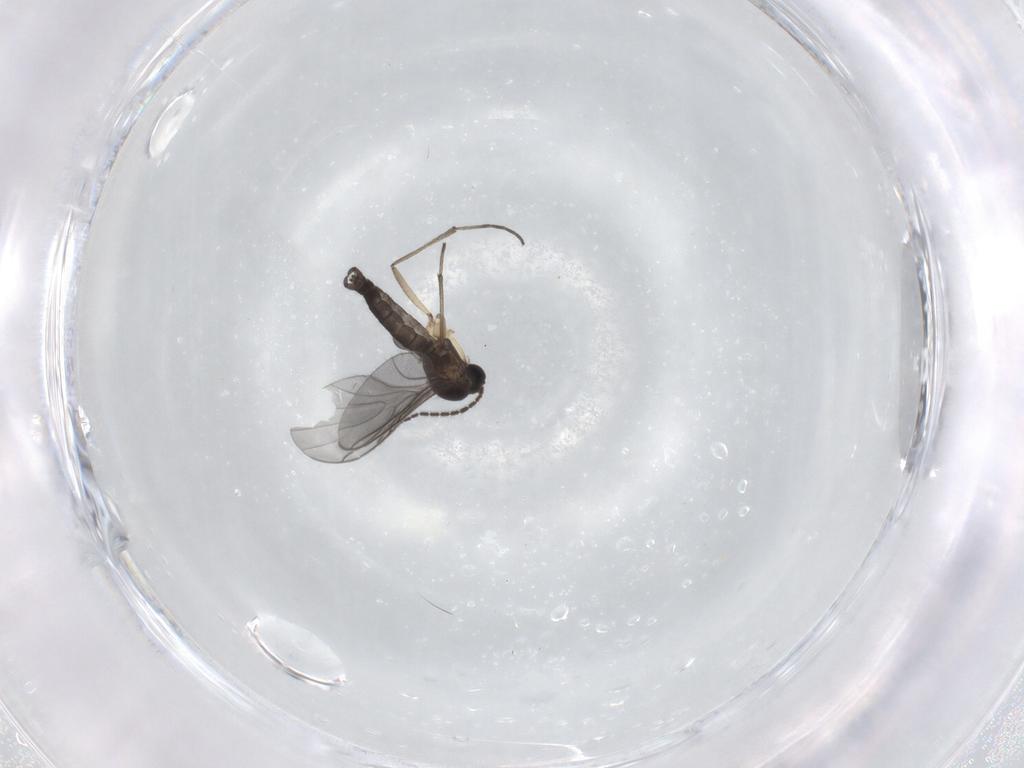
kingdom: Animalia
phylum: Arthropoda
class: Insecta
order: Diptera
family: Sciaridae
